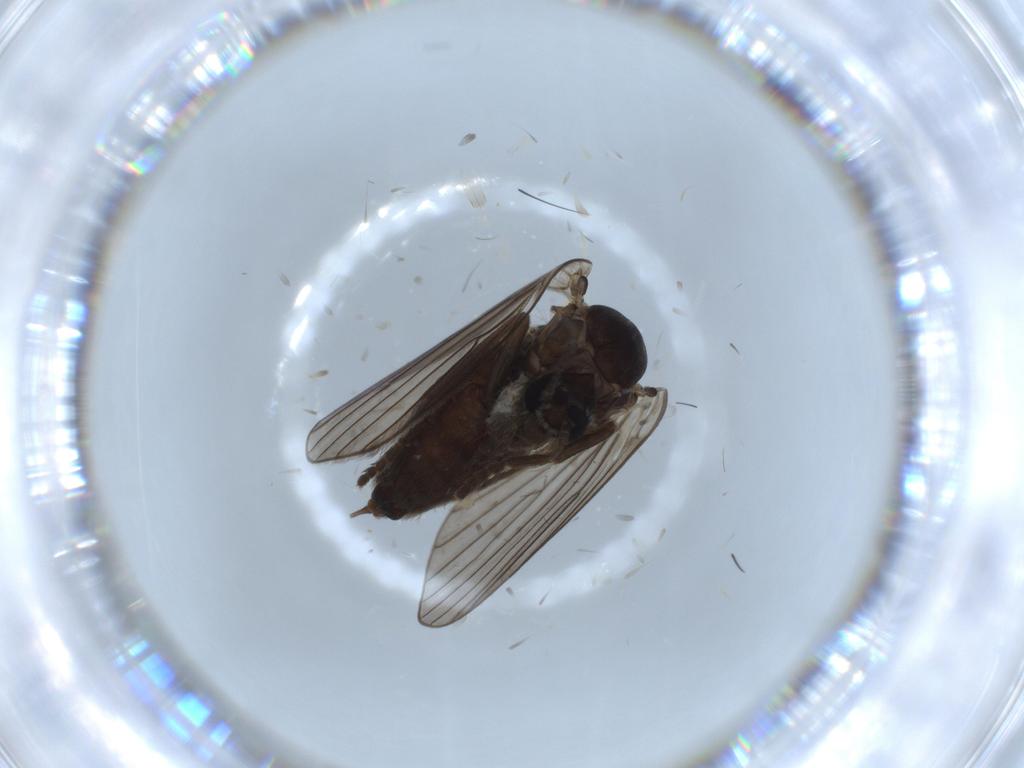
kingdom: Animalia
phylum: Arthropoda
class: Insecta
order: Diptera
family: Psychodidae
